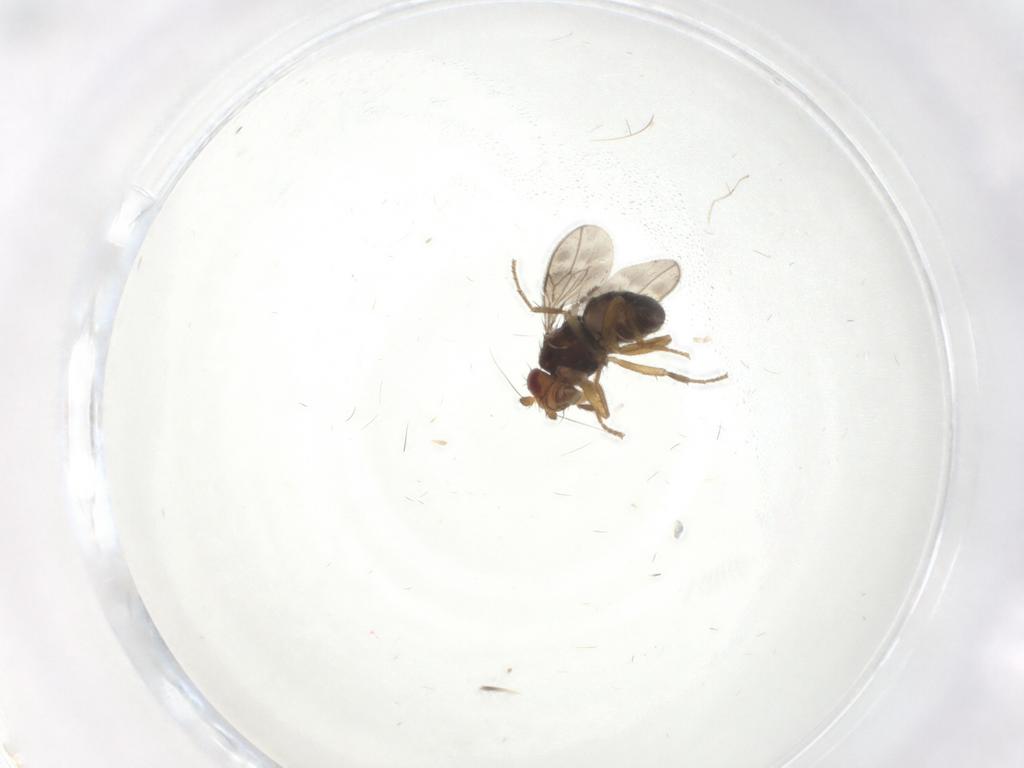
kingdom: Animalia
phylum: Arthropoda
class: Insecta
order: Diptera
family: Sphaeroceridae
